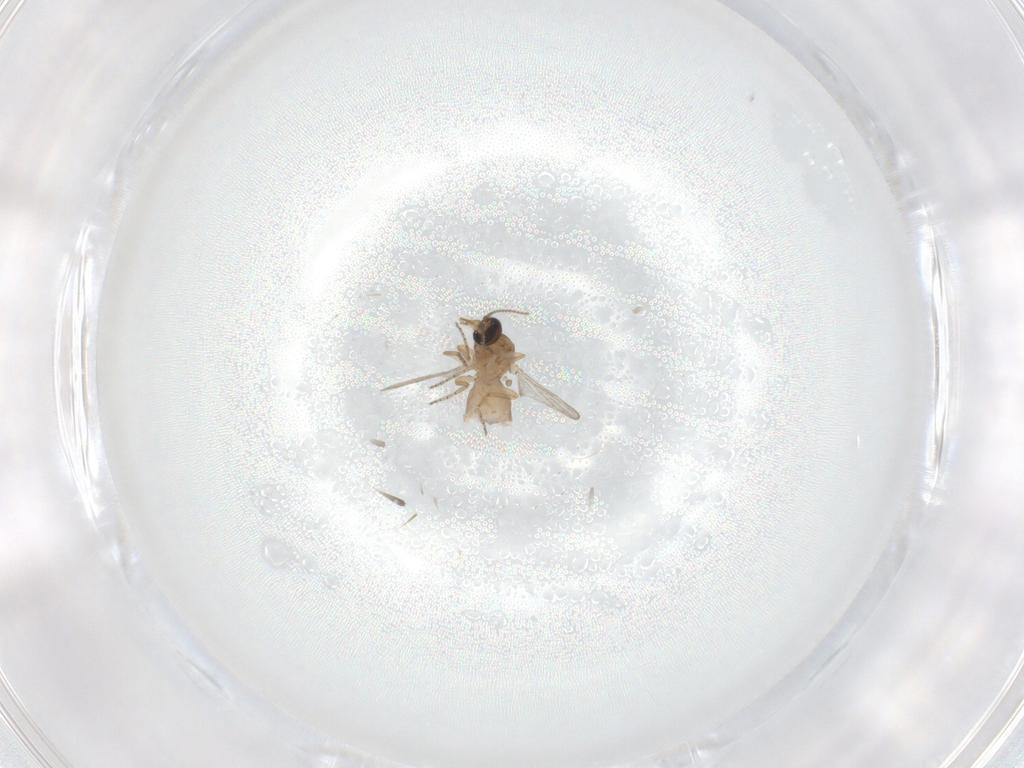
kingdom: Animalia
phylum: Arthropoda
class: Insecta
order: Diptera
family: Ceratopogonidae
